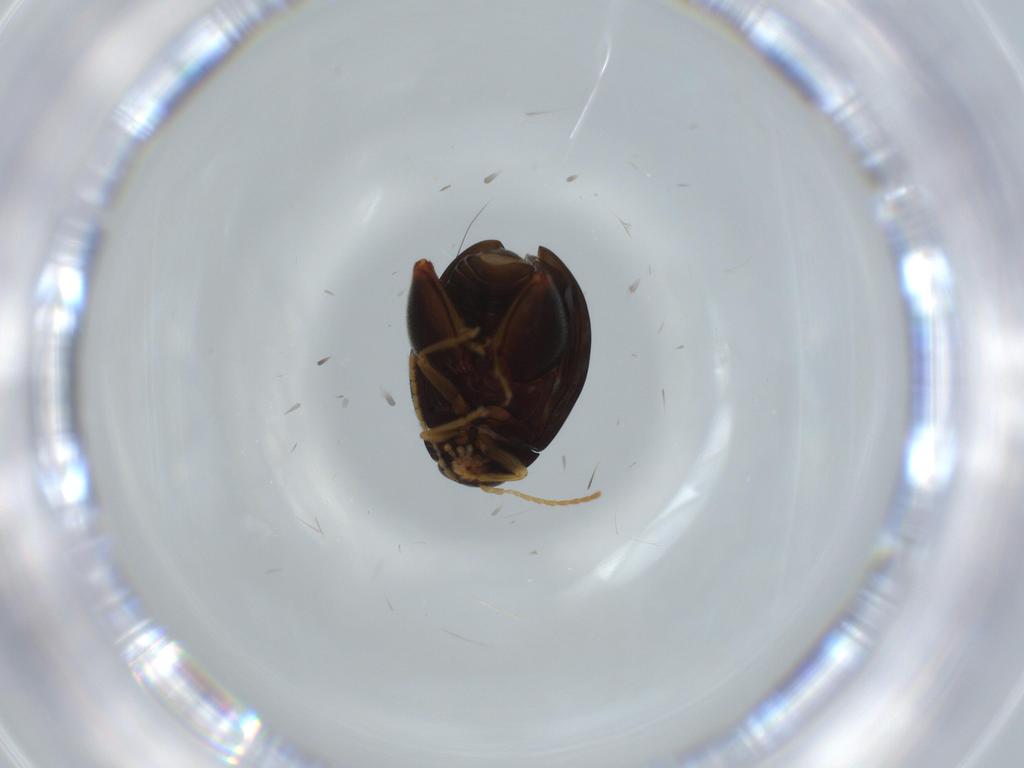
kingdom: Animalia
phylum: Arthropoda
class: Insecta
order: Coleoptera
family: Chrysomelidae
